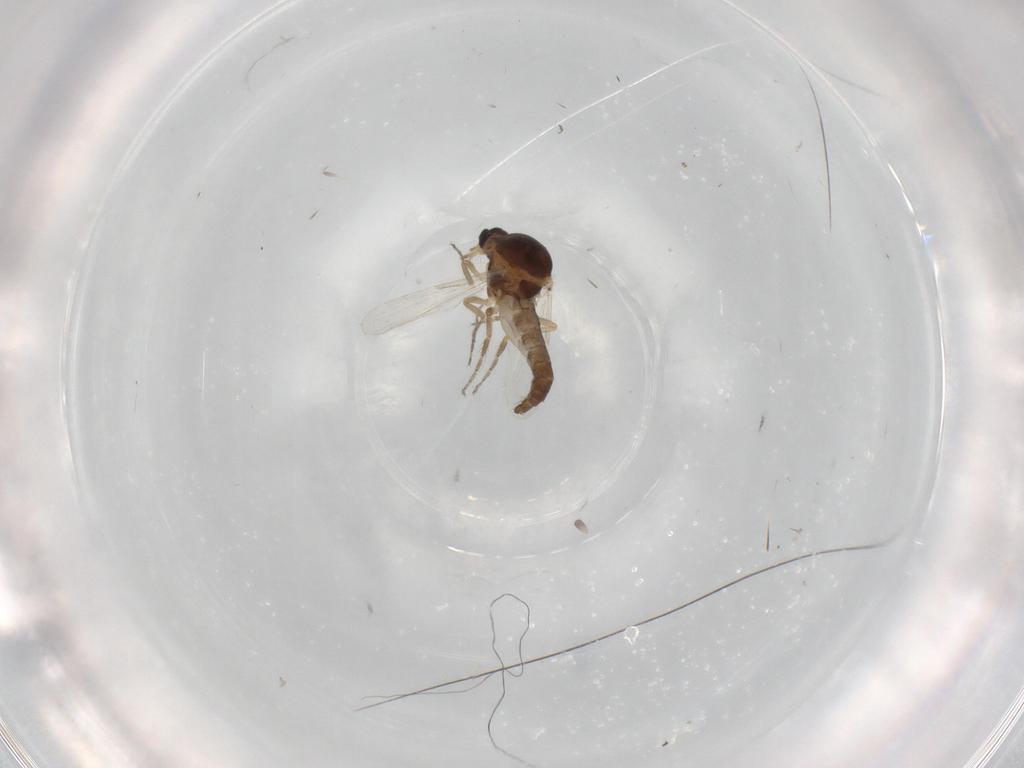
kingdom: Animalia
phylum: Arthropoda
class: Insecta
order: Diptera
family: Ceratopogonidae
